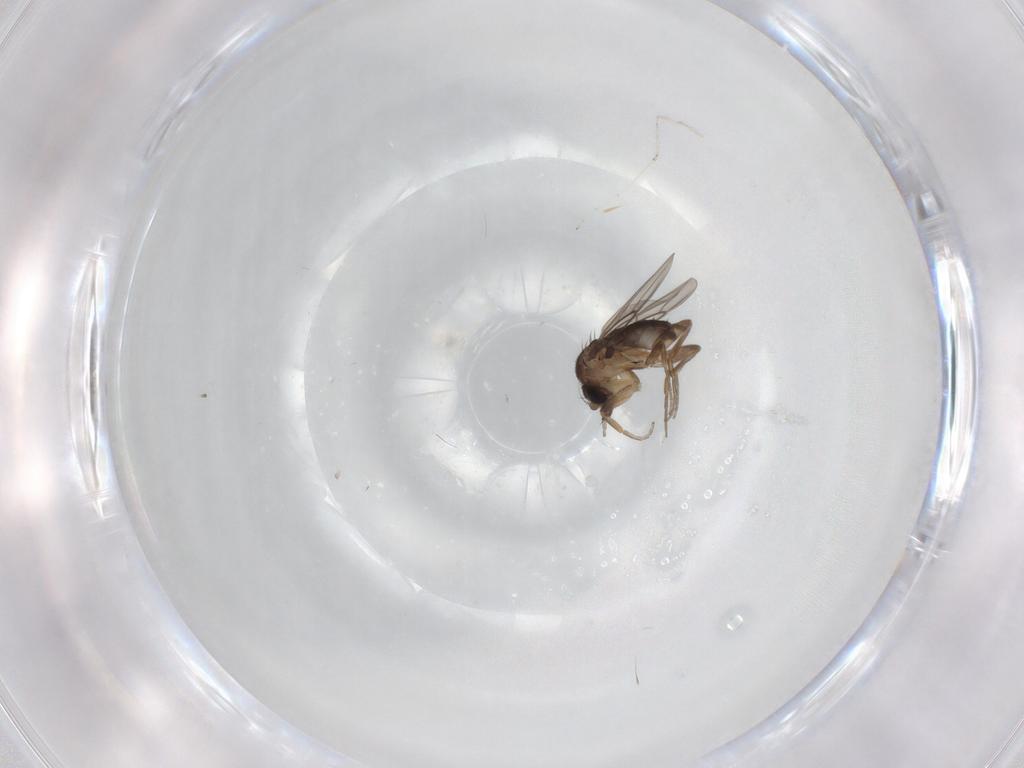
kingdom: Animalia
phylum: Arthropoda
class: Insecta
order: Diptera
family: Phoridae
